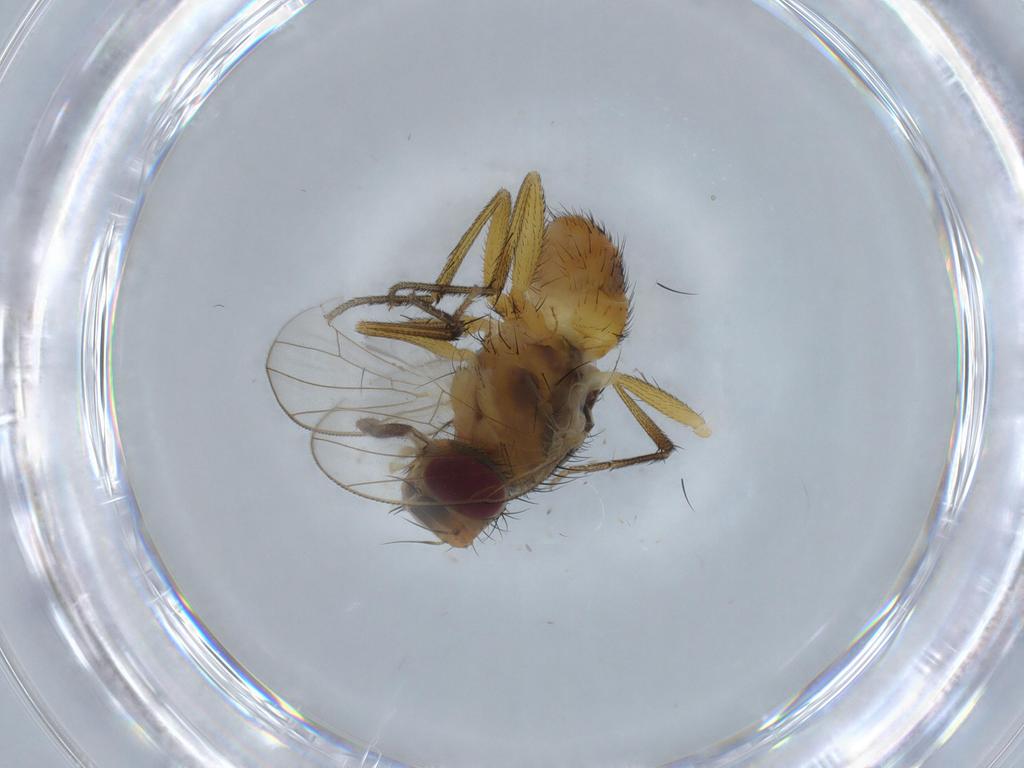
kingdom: Animalia
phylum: Arthropoda
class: Insecta
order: Diptera
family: Muscidae
